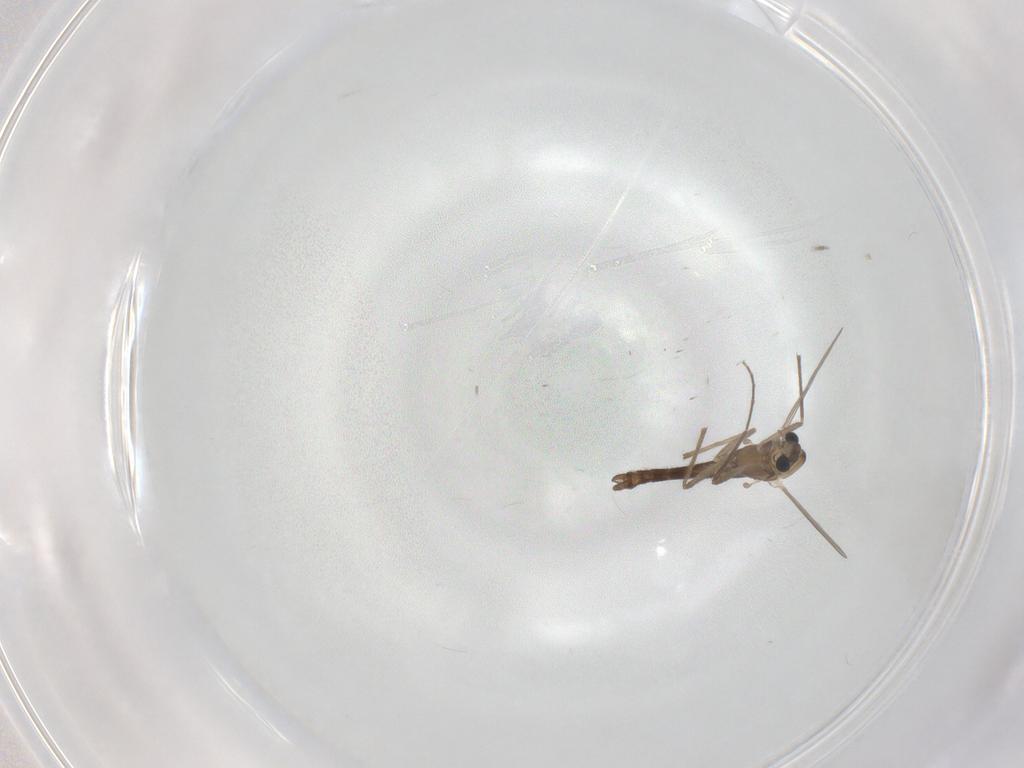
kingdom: Animalia
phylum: Arthropoda
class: Insecta
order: Diptera
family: Chironomidae
